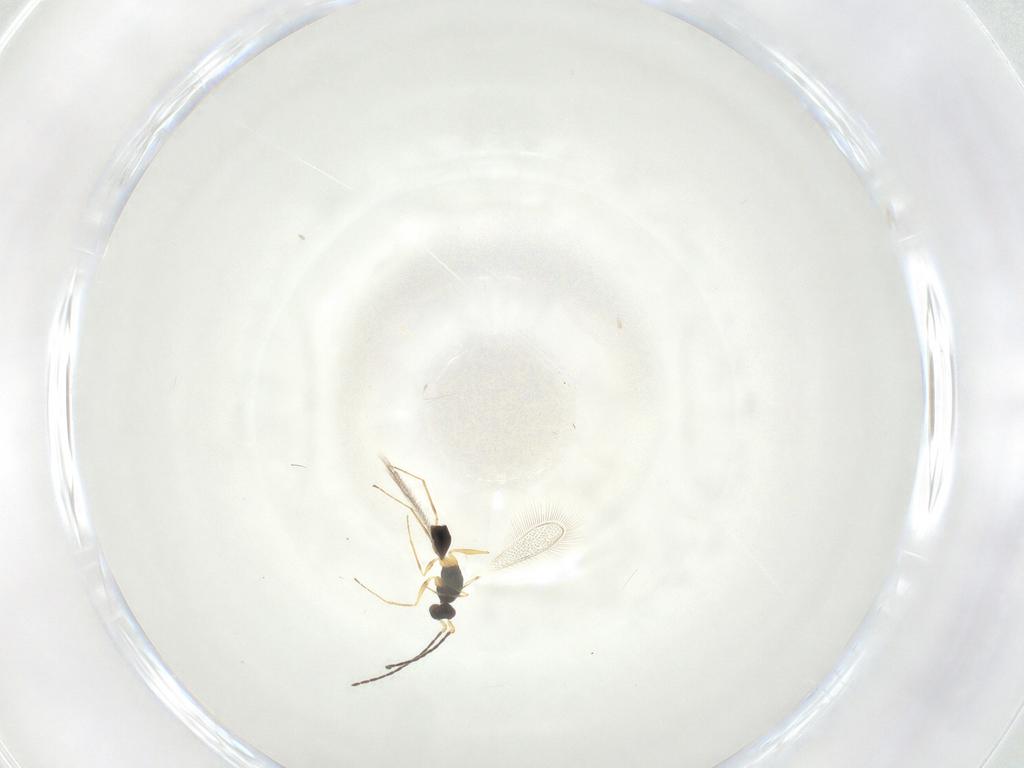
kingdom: Animalia
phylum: Arthropoda
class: Insecta
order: Hymenoptera
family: Mymaridae
